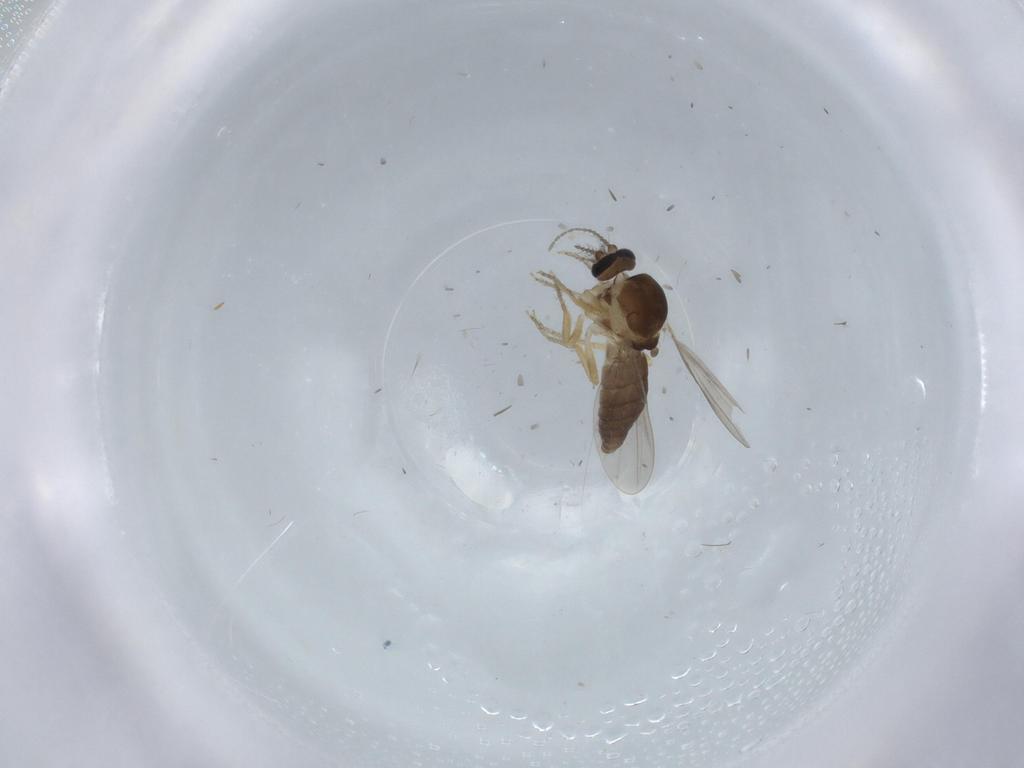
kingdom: Animalia
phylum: Arthropoda
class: Insecta
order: Diptera
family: Ceratopogonidae
